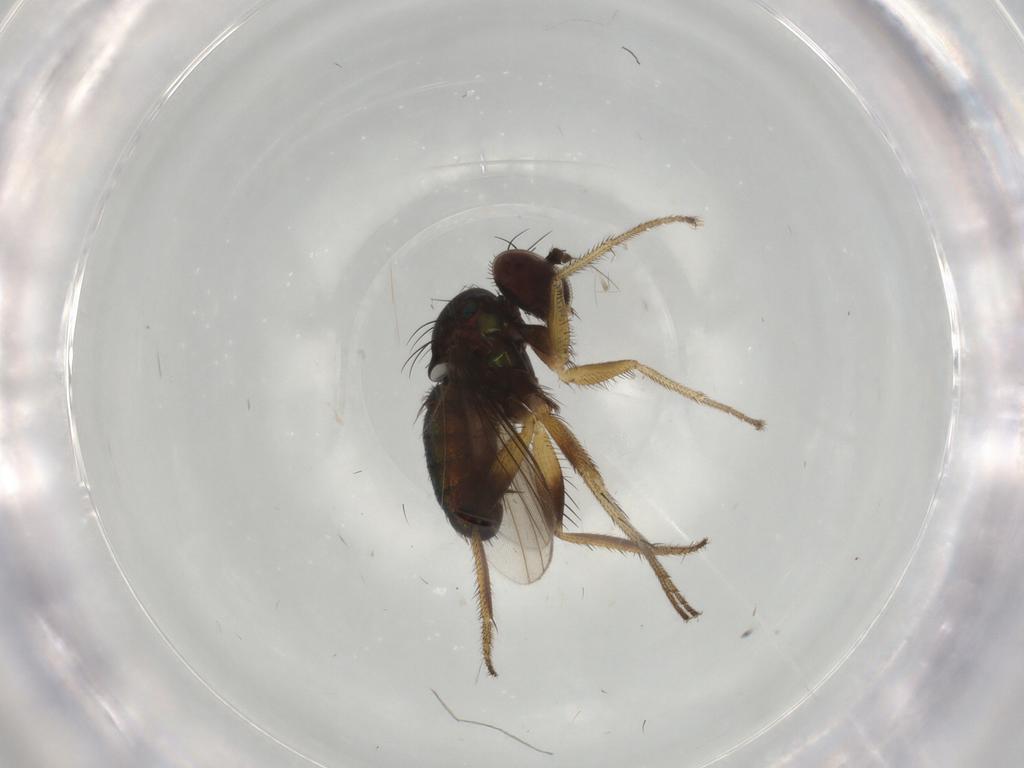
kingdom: Animalia
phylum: Arthropoda
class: Insecta
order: Diptera
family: Dolichopodidae
